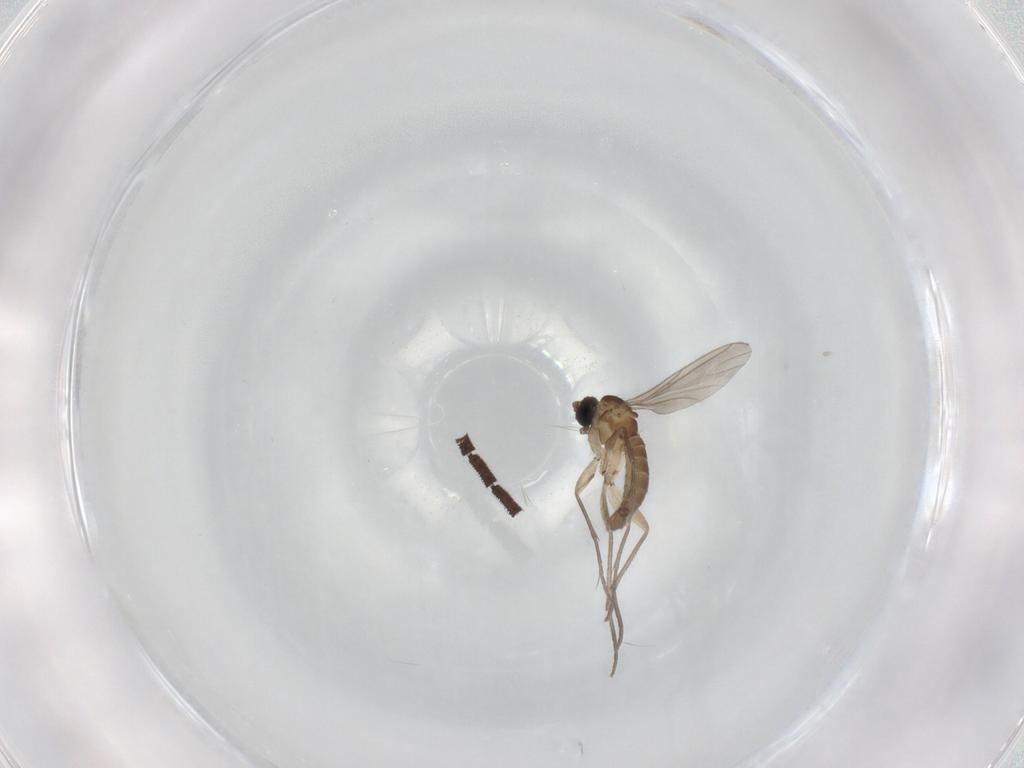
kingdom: Animalia
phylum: Arthropoda
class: Insecta
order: Diptera
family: Sciaridae
